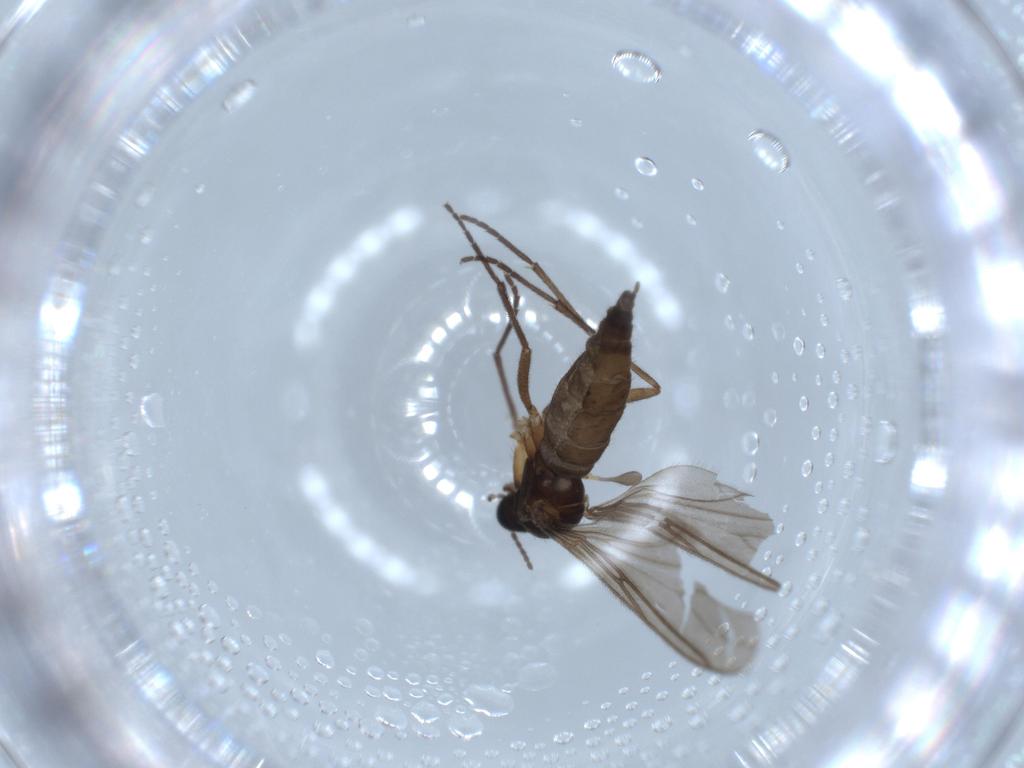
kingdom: Animalia
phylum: Arthropoda
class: Insecta
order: Diptera
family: Sciaridae
